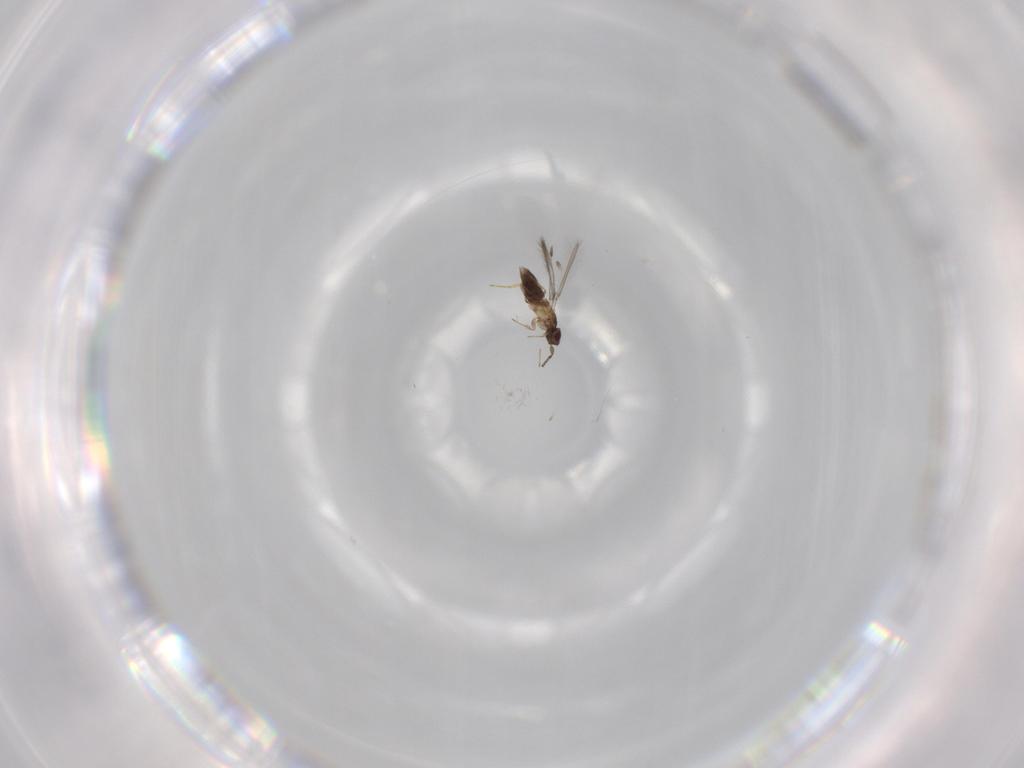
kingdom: Animalia
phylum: Arthropoda
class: Insecta
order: Hymenoptera
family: Mymaridae
